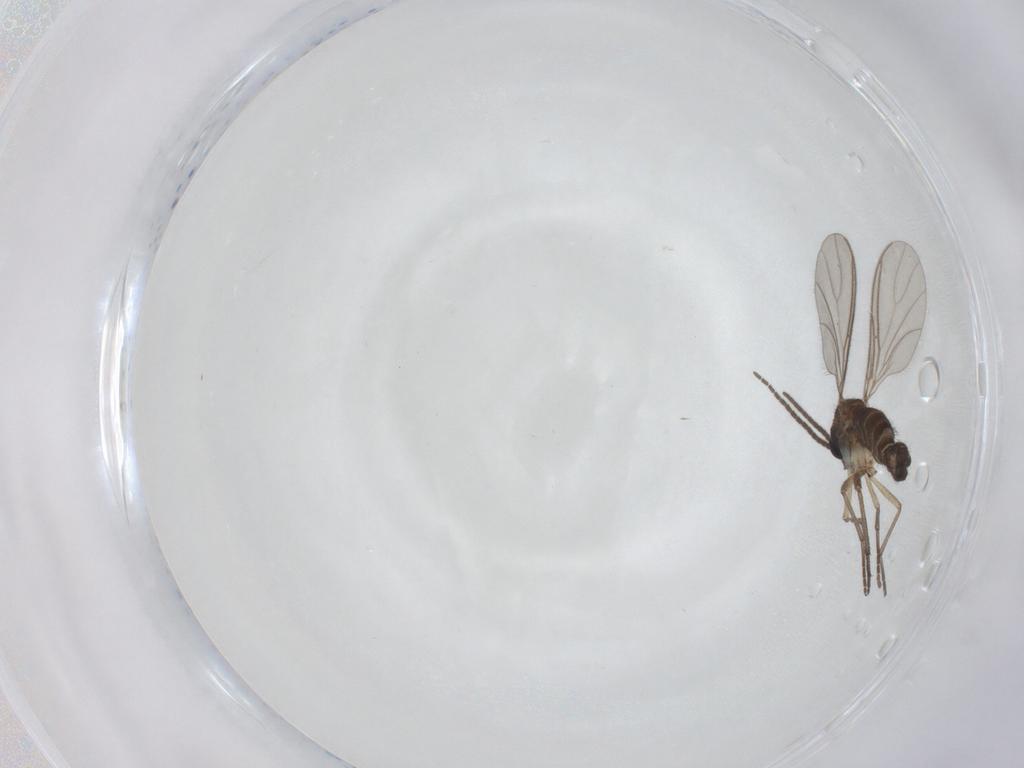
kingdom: Animalia
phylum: Arthropoda
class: Insecta
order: Diptera
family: Sciaridae
